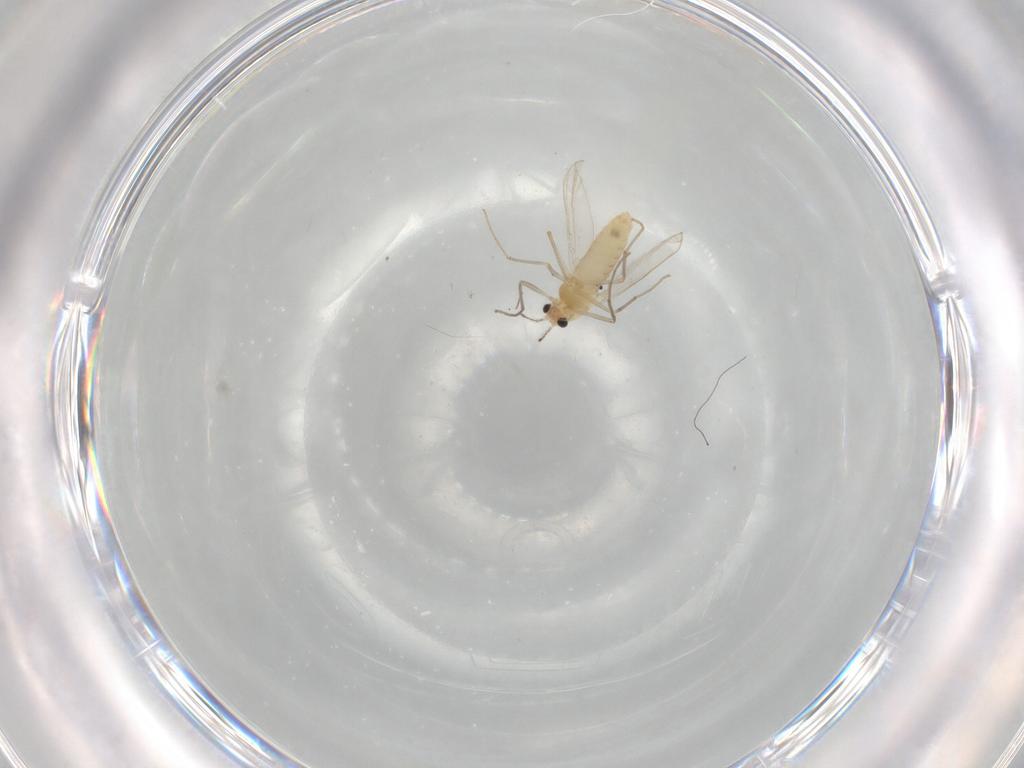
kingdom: Animalia
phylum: Arthropoda
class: Insecta
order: Diptera
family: Chironomidae
